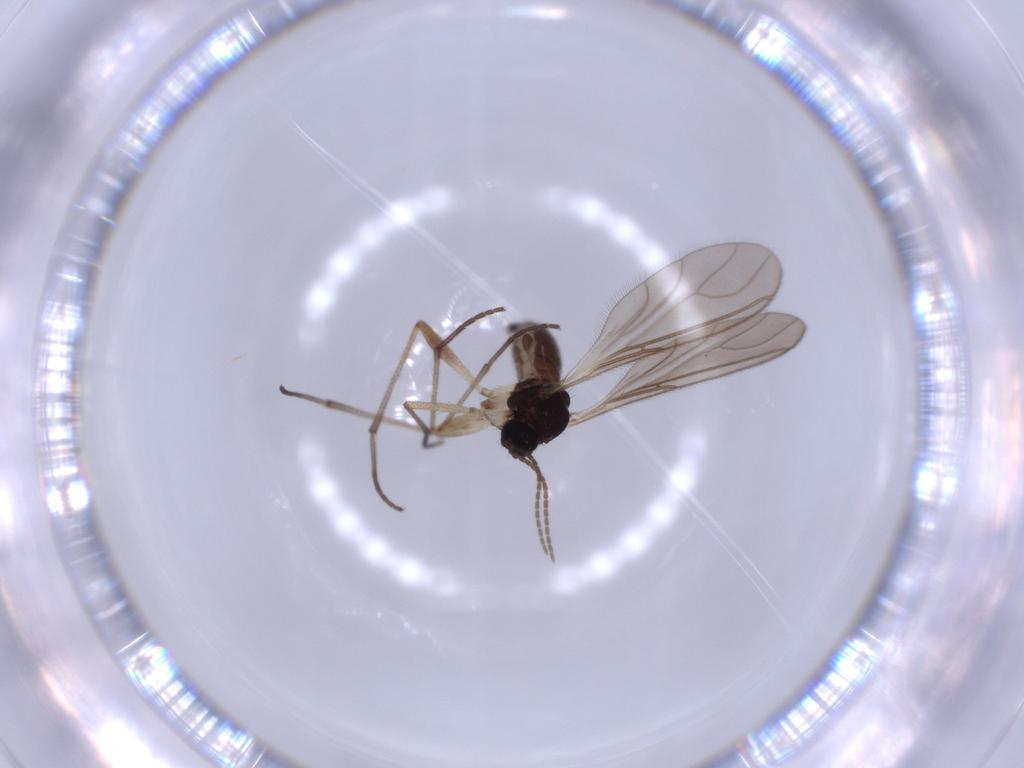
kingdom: Animalia
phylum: Arthropoda
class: Insecta
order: Diptera
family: Sciaridae
